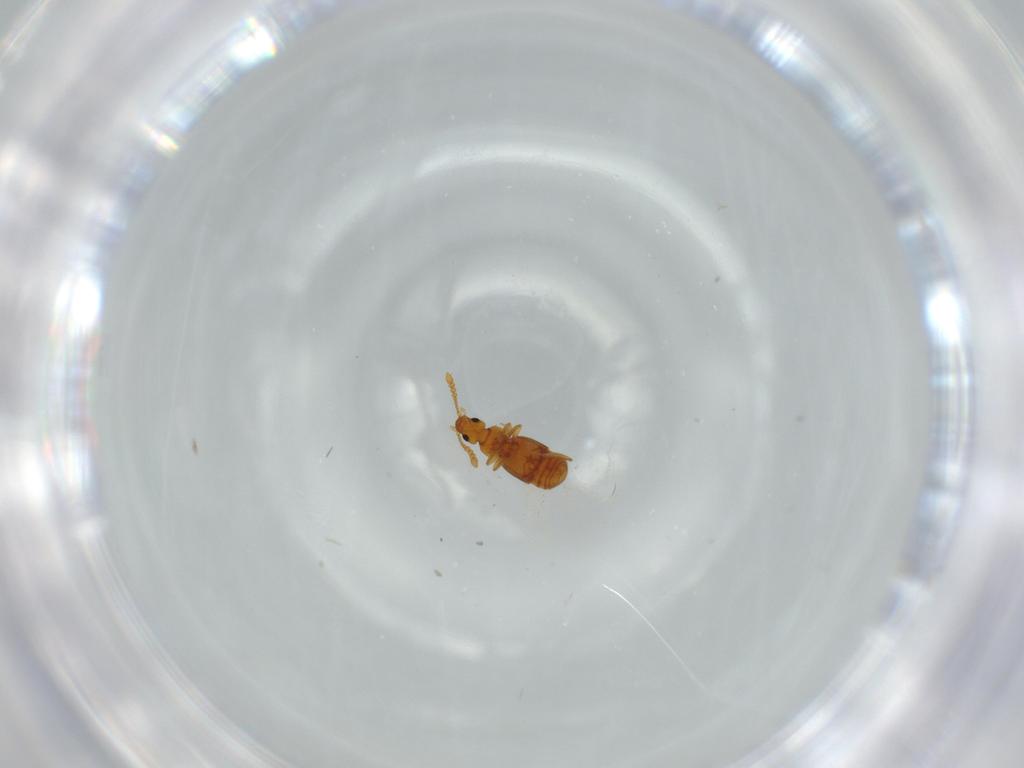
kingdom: Animalia
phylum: Arthropoda
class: Insecta
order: Coleoptera
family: Staphylinidae
